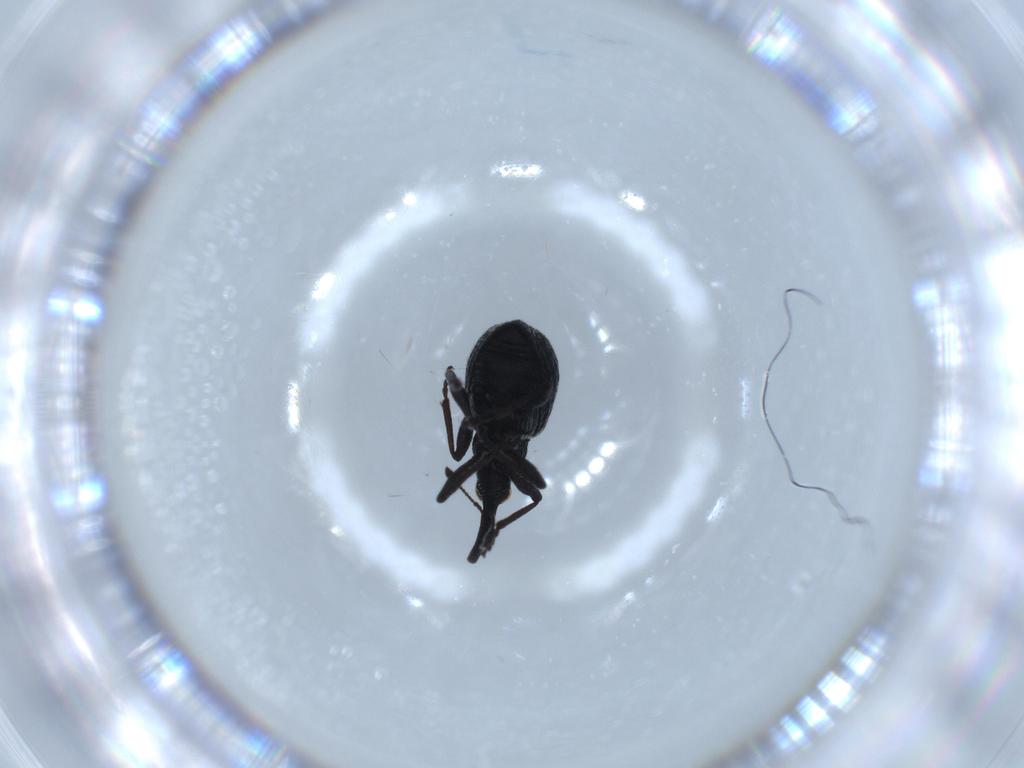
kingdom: Animalia
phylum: Arthropoda
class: Insecta
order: Coleoptera
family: Brentidae
